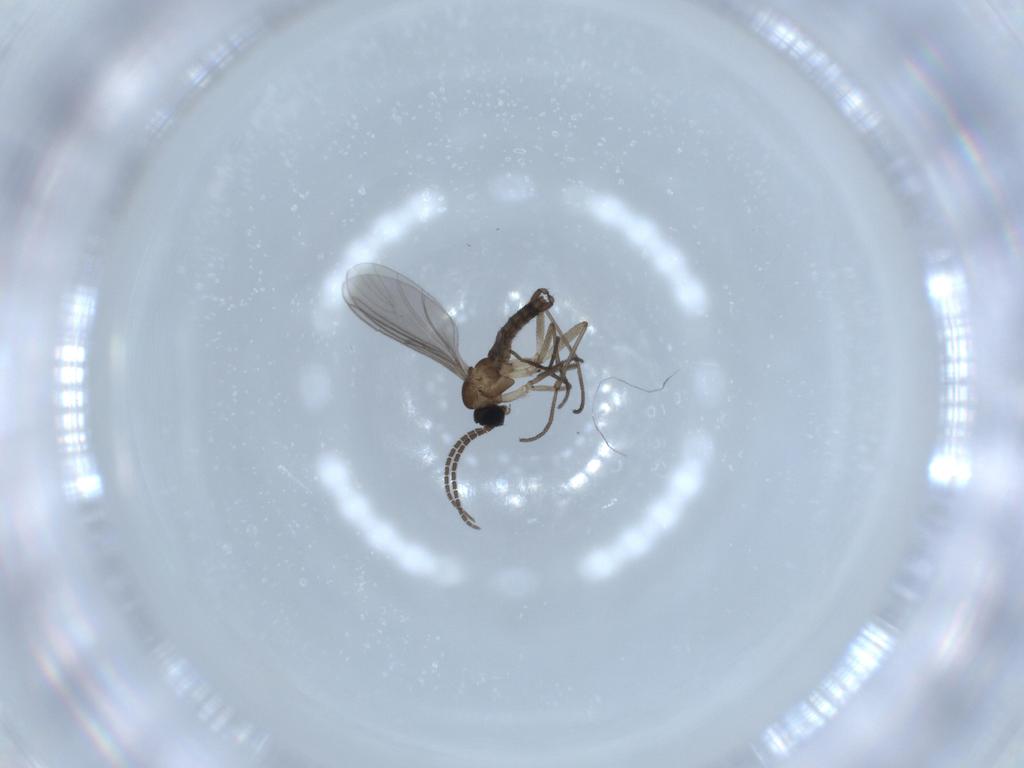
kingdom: Animalia
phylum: Arthropoda
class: Insecta
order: Diptera
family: Sciaridae
